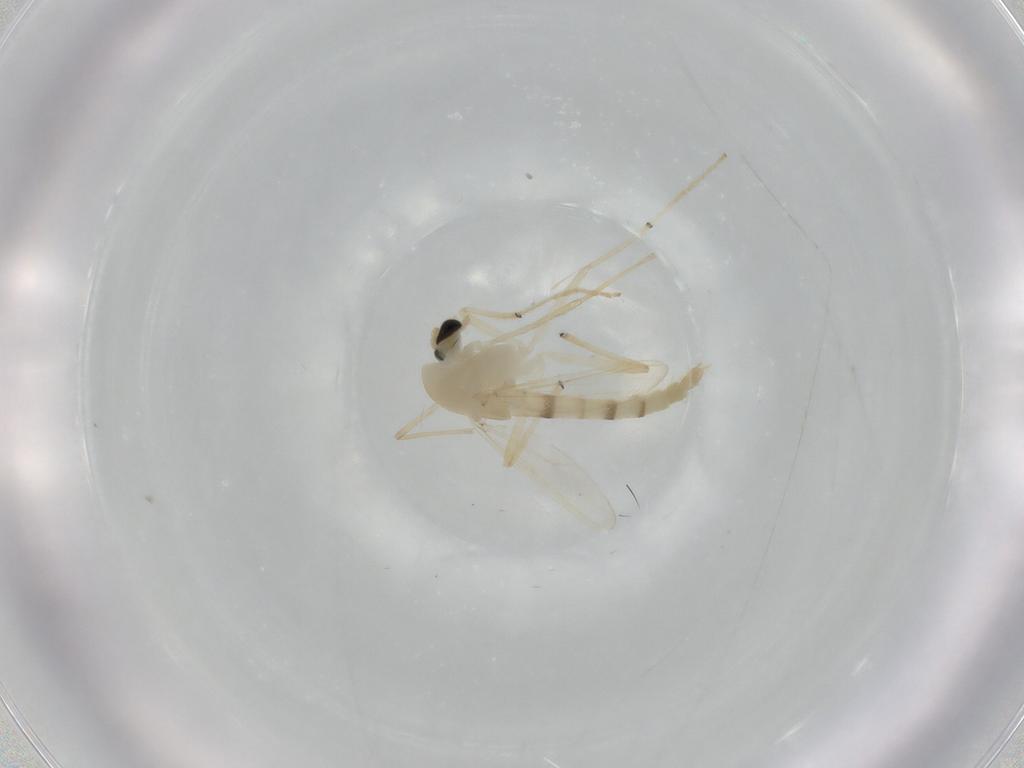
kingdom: Animalia
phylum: Arthropoda
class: Insecta
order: Diptera
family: Chironomidae
